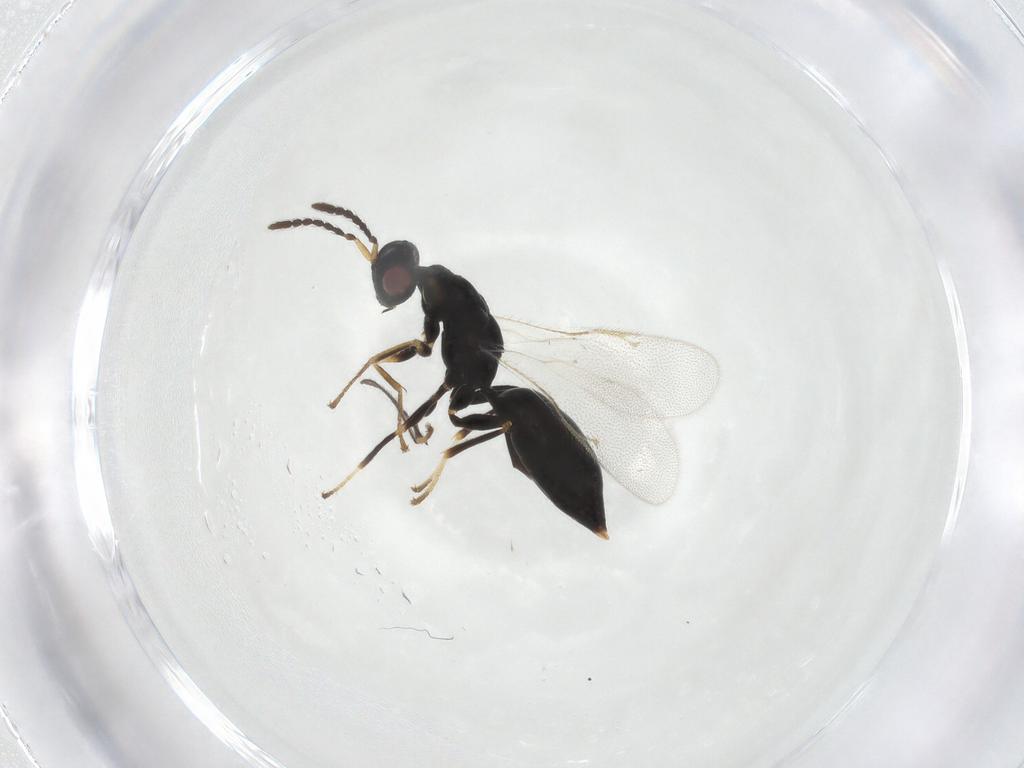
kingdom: Animalia
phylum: Arthropoda
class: Insecta
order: Hymenoptera
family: Eurytomidae
